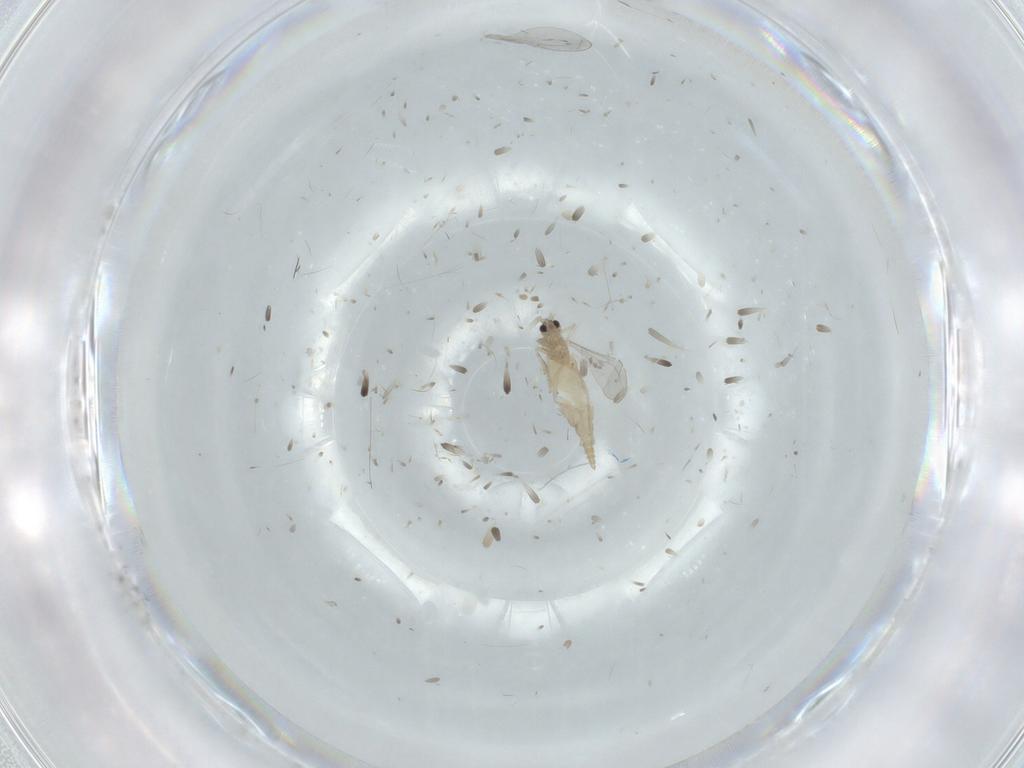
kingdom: Animalia
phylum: Arthropoda
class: Insecta
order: Diptera
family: Cecidomyiidae
